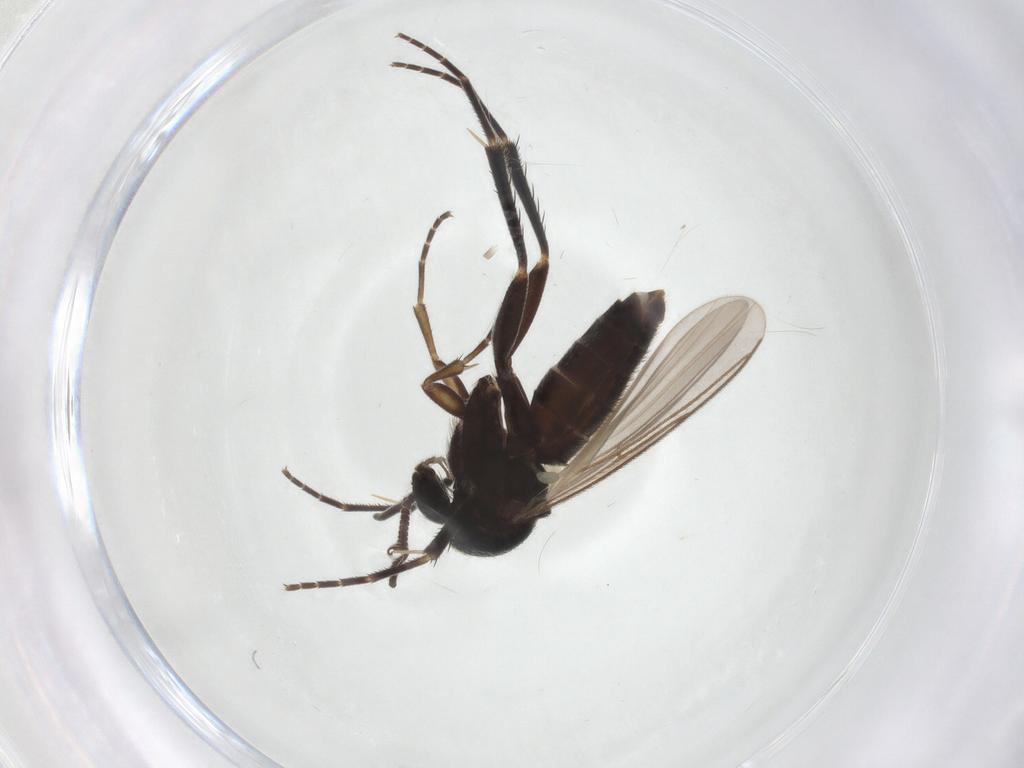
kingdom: Animalia
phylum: Arthropoda
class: Insecta
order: Diptera
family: Mycetophilidae
